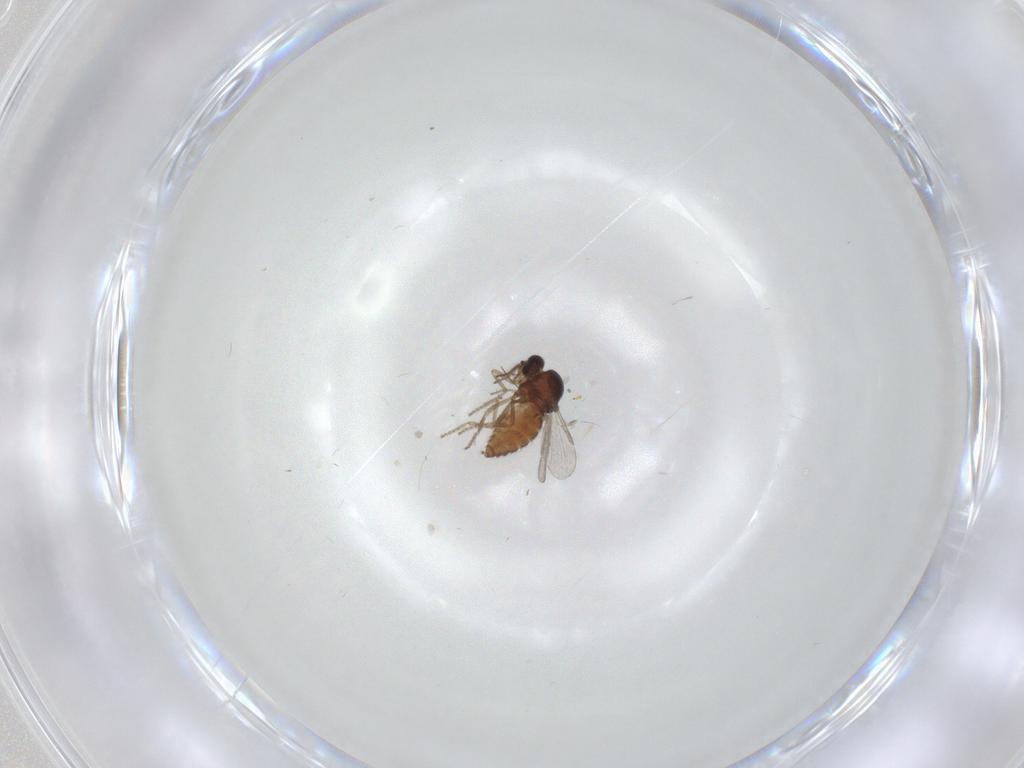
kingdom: Animalia
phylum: Arthropoda
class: Insecta
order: Diptera
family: Ceratopogonidae
